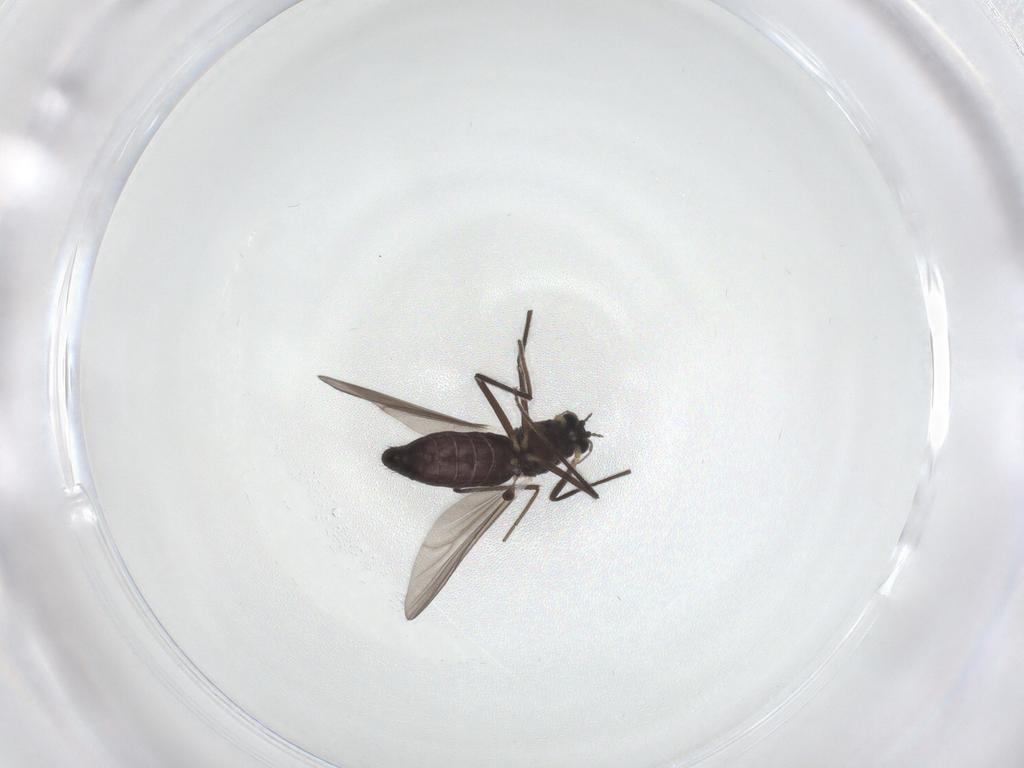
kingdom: Animalia
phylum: Arthropoda
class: Insecta
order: Diptera
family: Chironomidae
